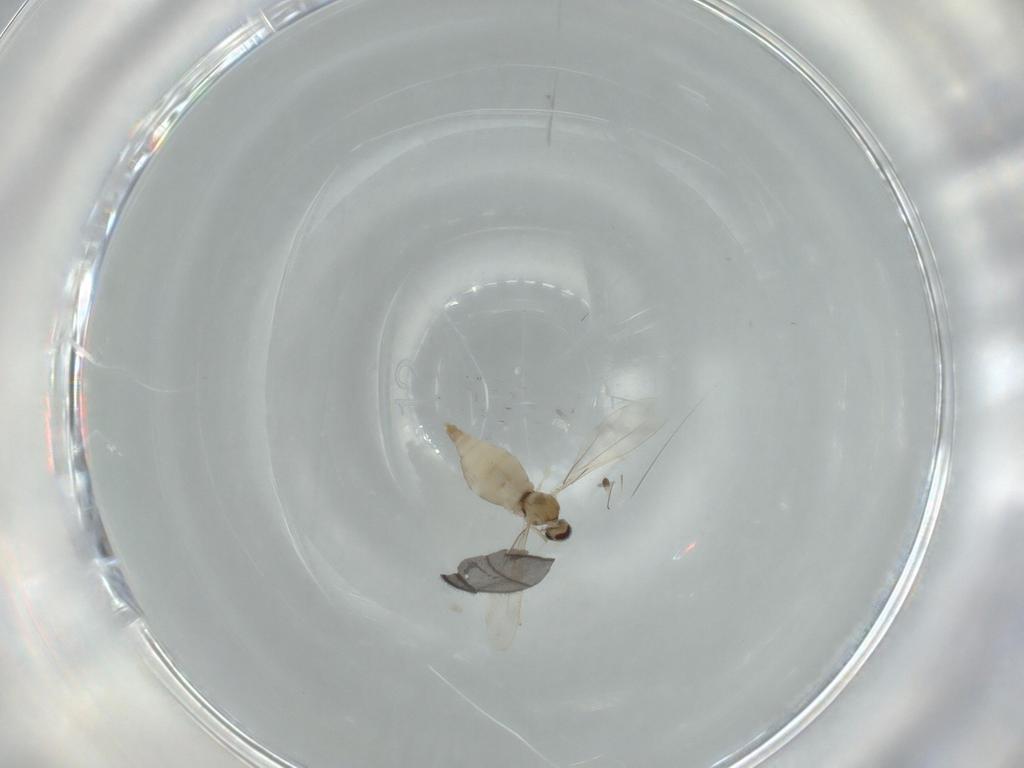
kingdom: Animalia
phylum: Arthropoda
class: Insecta
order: Diptera
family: Cecidomyiidae
